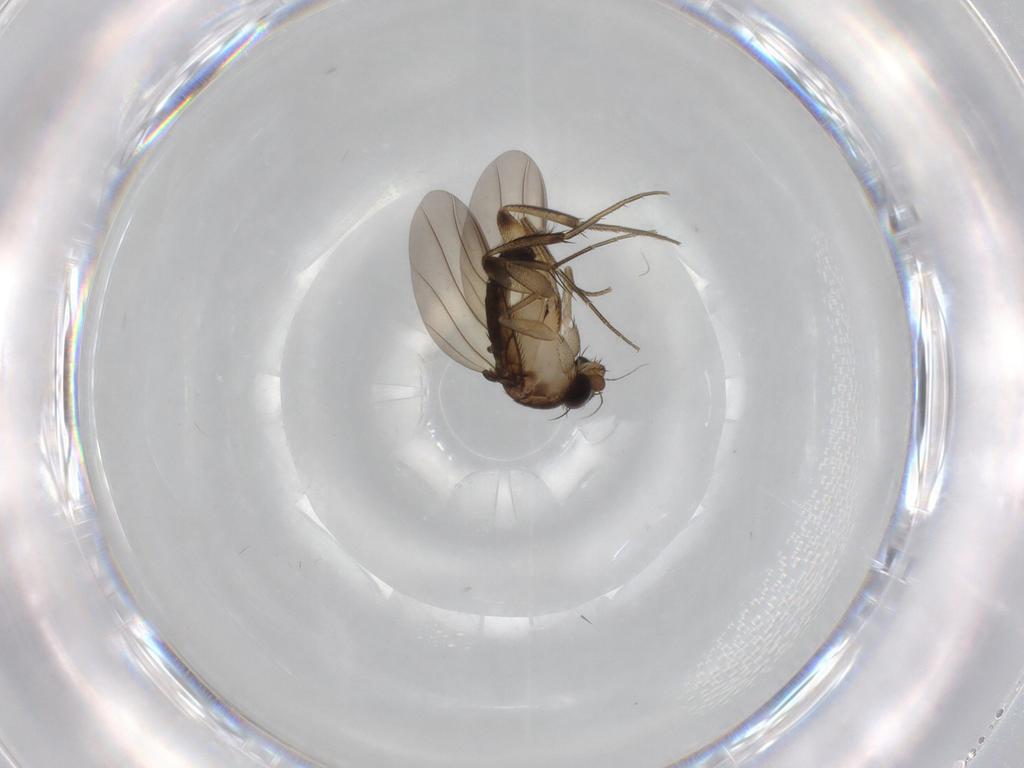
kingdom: Animalia
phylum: Arthropoda
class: Insecta
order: Diptera
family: Phoridae
